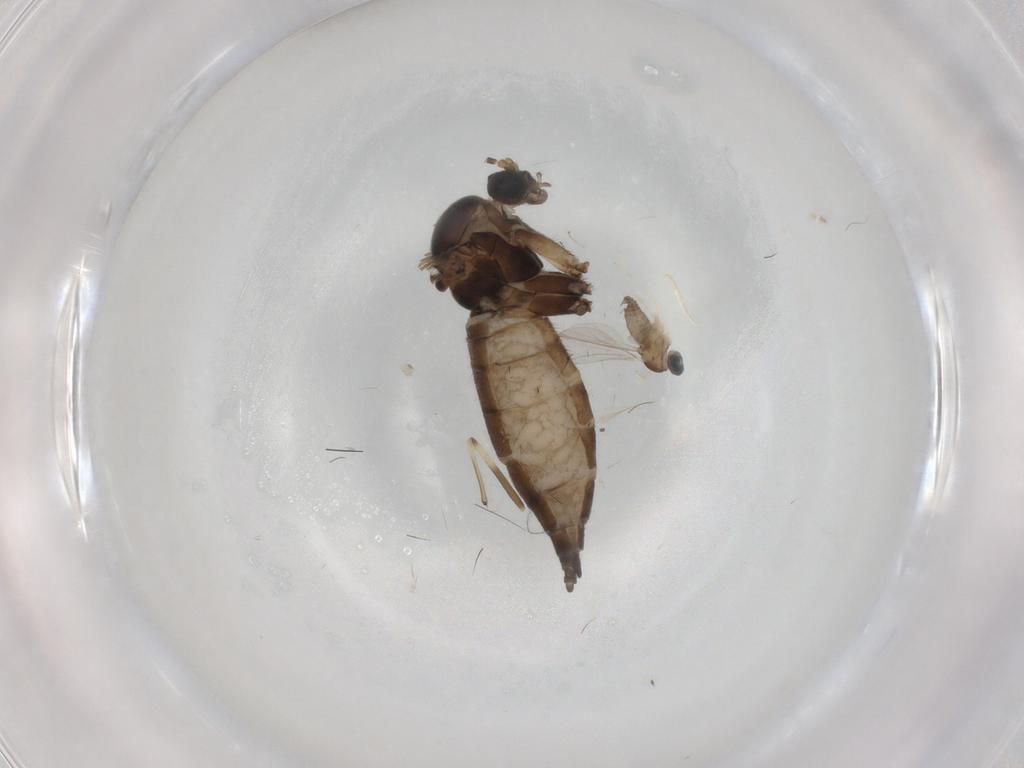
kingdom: Animalia
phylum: Arthropoda
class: Insecta
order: Diptera
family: Cecidomyiidae
